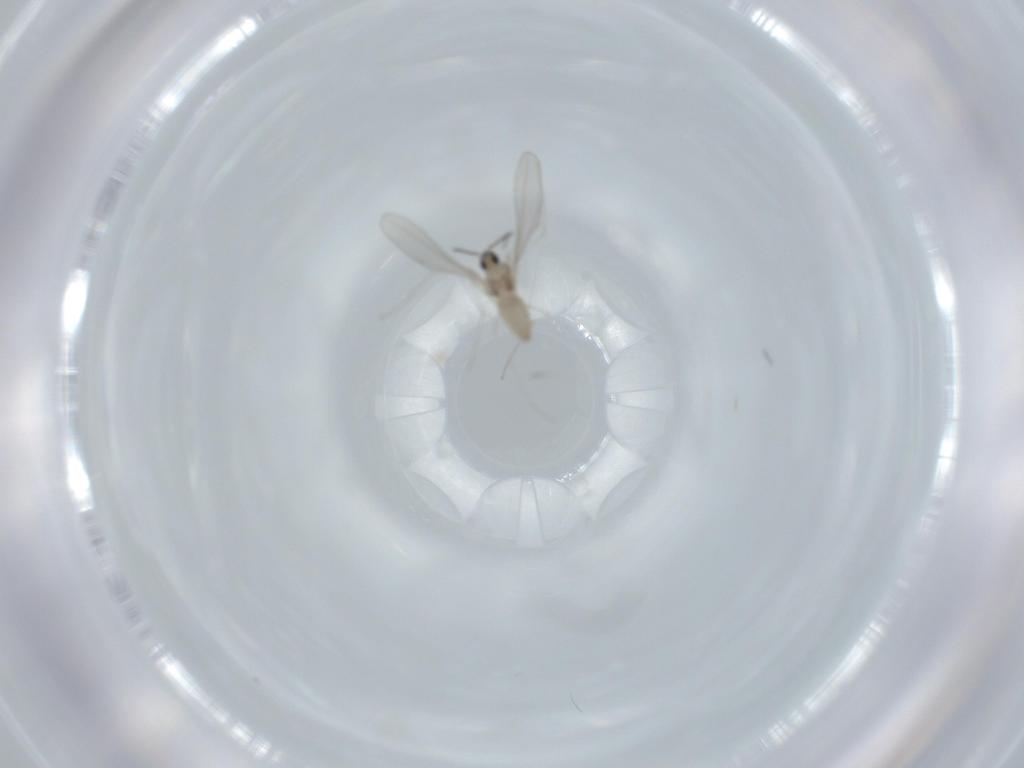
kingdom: Animalia
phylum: Arthropoda
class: Insecta
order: Diptera
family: Cecidomyiidae
